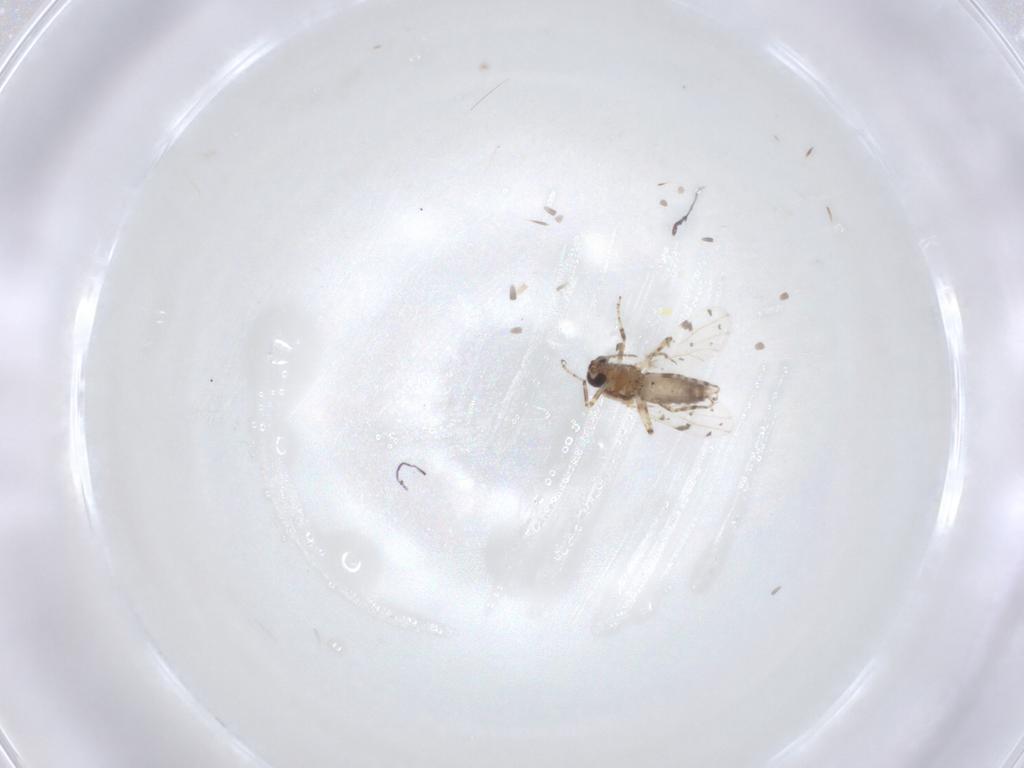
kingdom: Animalia
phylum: Arthropoda
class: Insecta
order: Diptera
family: Ceratopogonidae
